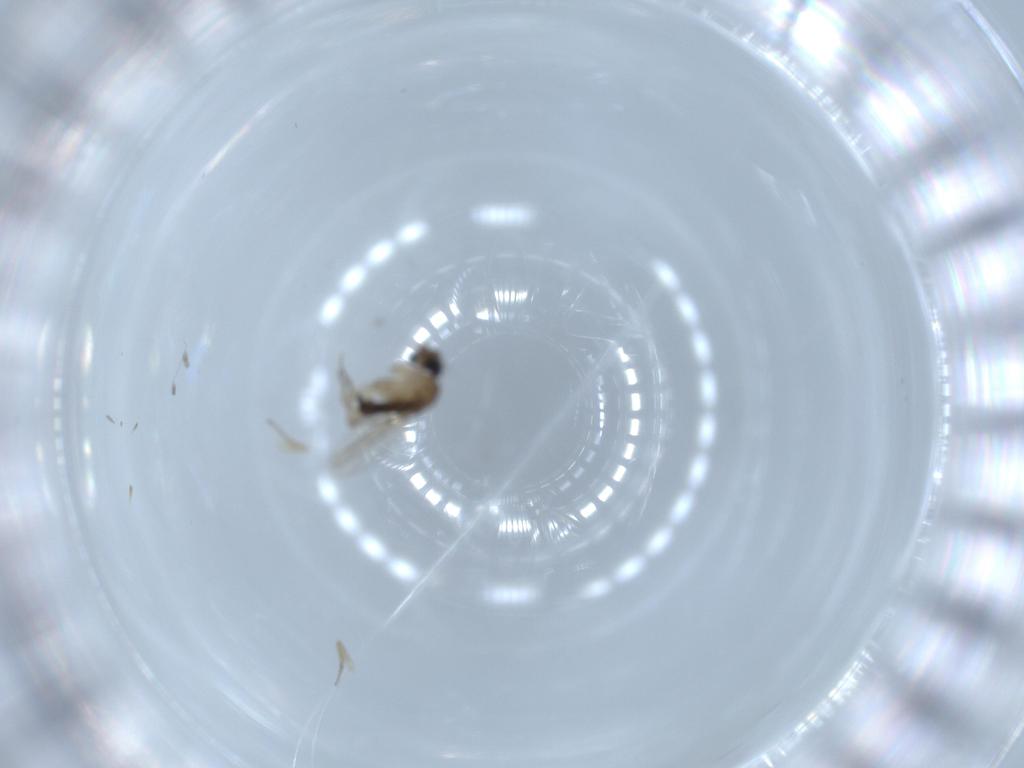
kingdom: Animalia
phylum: Arthropoda
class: Insecta
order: Diptera
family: Phoridae
